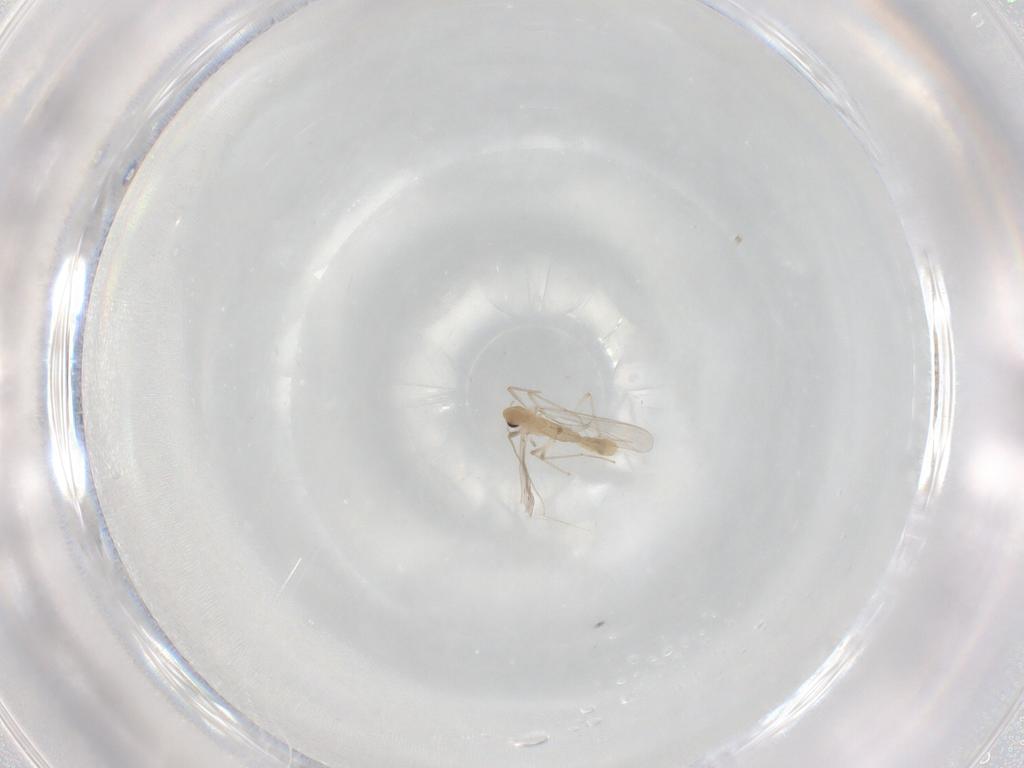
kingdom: Animalia
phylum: Arthropoda
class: Insecta
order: Diptera
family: Chironomidae
